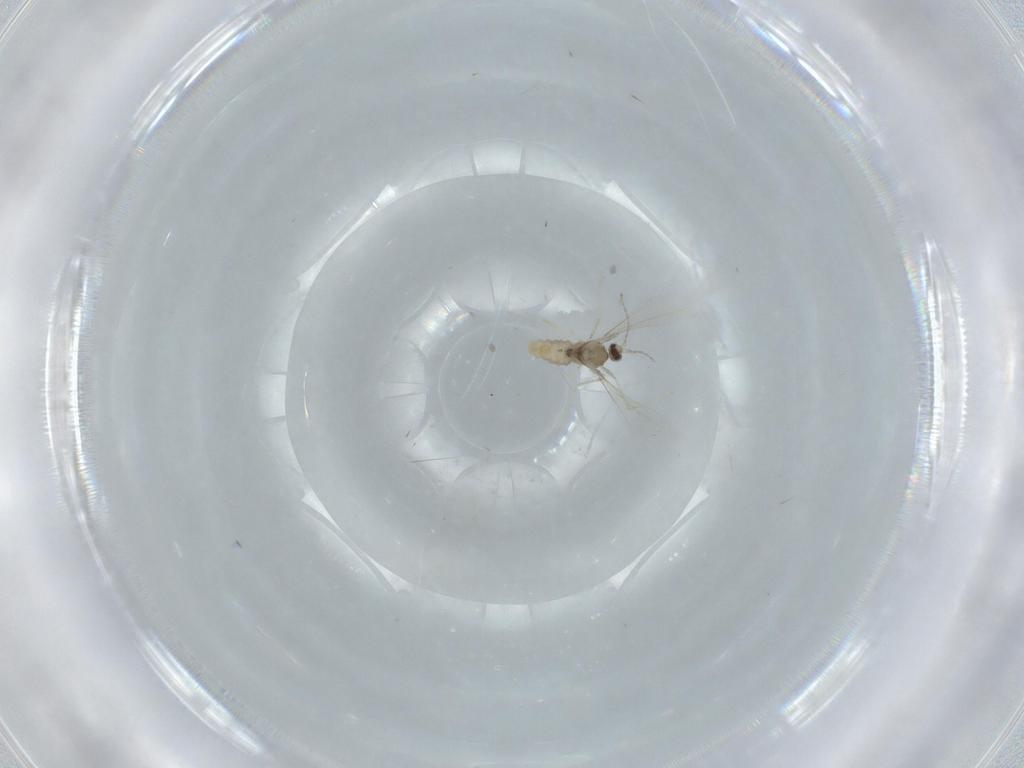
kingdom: Animalia
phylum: Arthropoda
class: Insecta
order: Diptera
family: Cecidomyiidae
